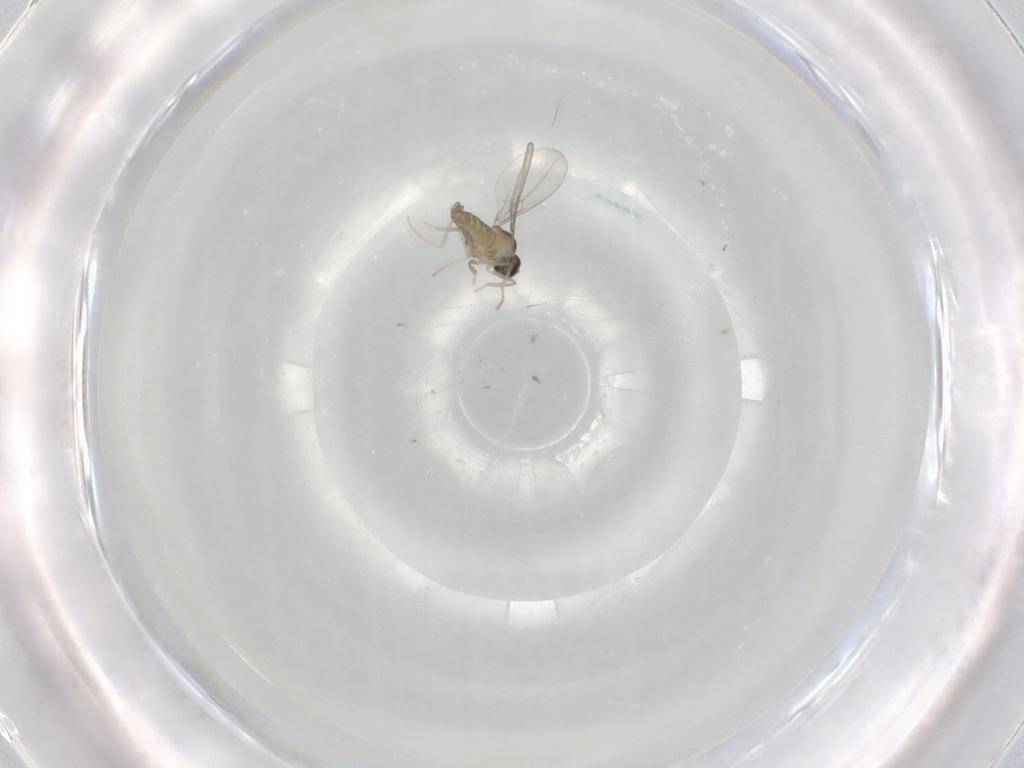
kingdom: Animalia
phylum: Arthropoda
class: Insecta
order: Diptera
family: Cecidomyiidae
